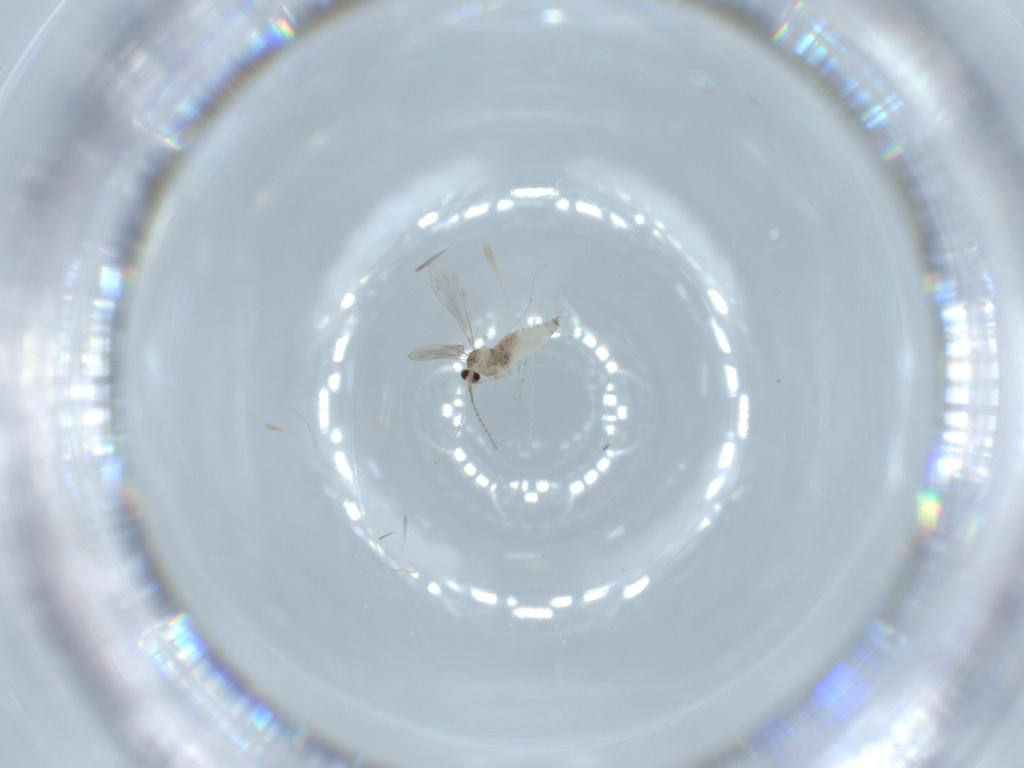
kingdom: Animalia
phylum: Arthropoda
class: Insecta
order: Diptera
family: Cecidomyiidae
